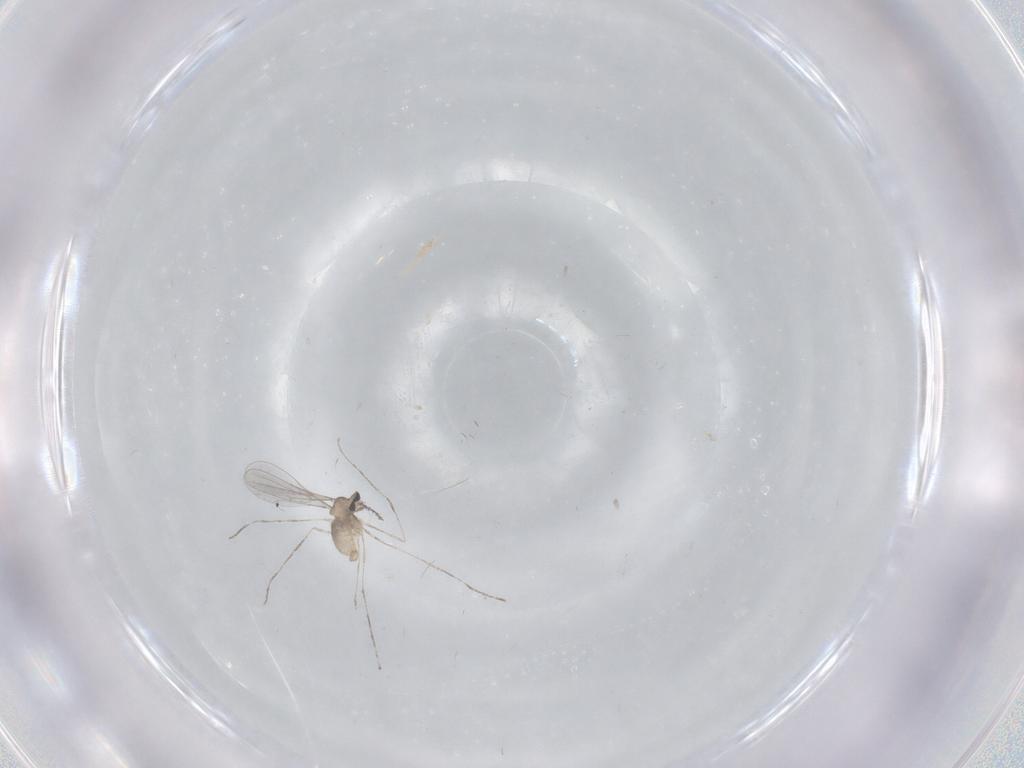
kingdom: Animalia
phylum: Arthropoda
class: Insecta
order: Diptera
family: Cecidomyiidae
